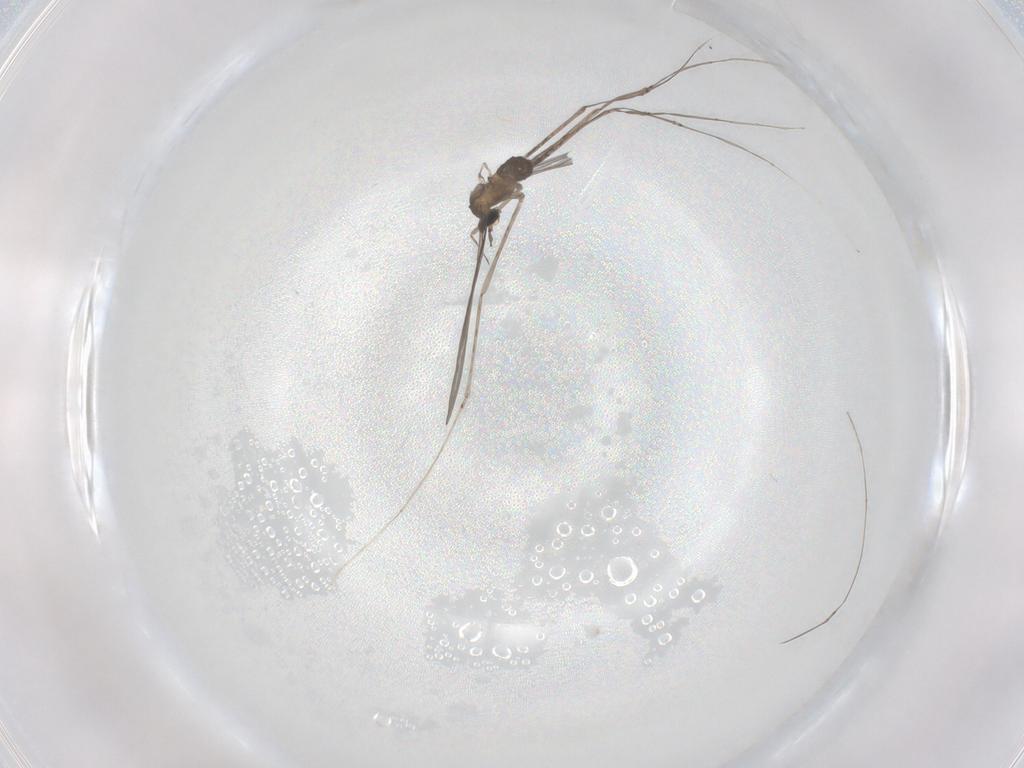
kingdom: Animalia
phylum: Arthropoda
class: Insecta
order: Diptera
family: Cecidomyiidae
